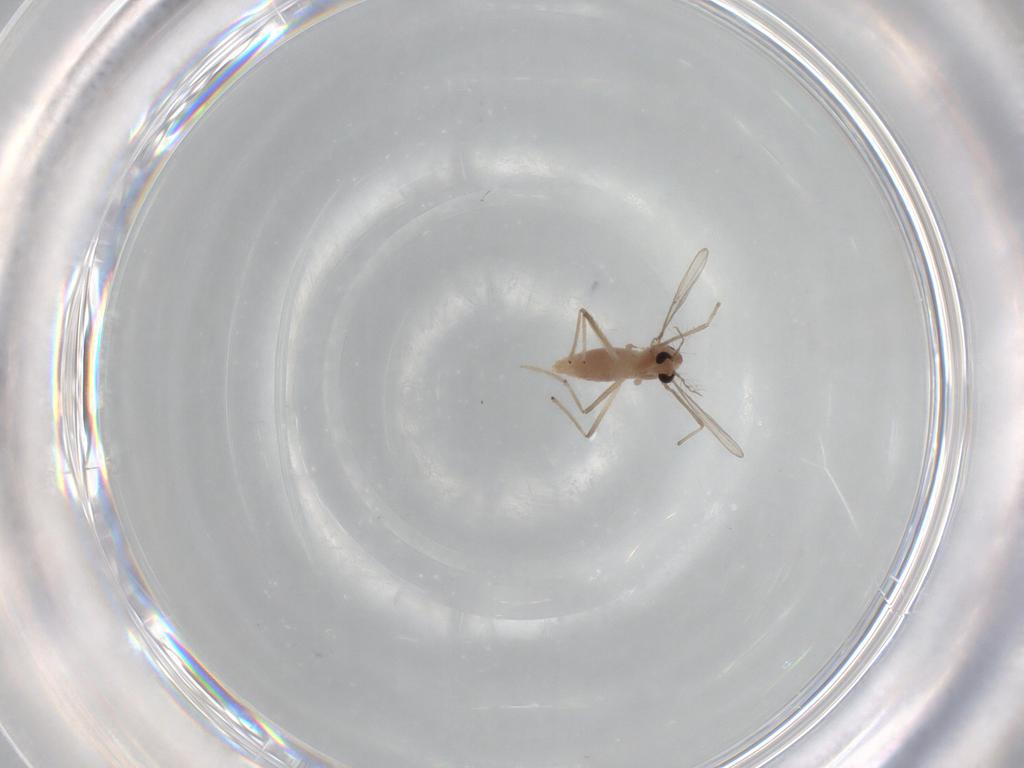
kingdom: Animalia
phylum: Arthropoda
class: Insecta
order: Diptera
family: Chironomidae
